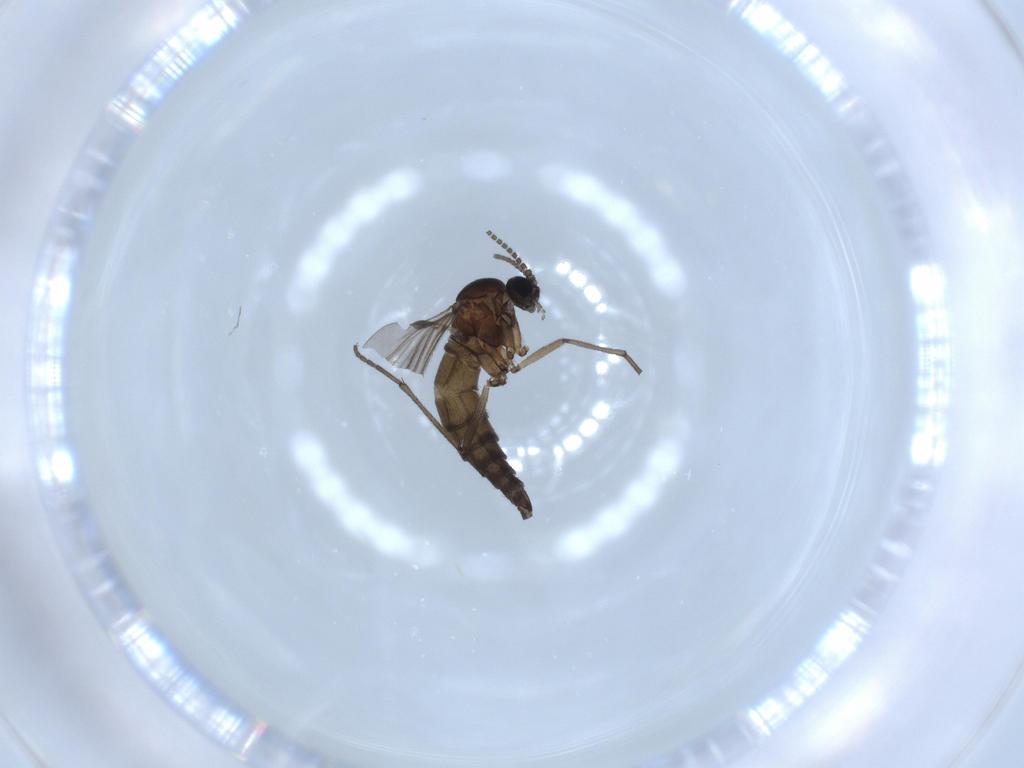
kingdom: Animalia
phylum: Arthropoda
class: Insecta
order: Diptera
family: Sciaridae
